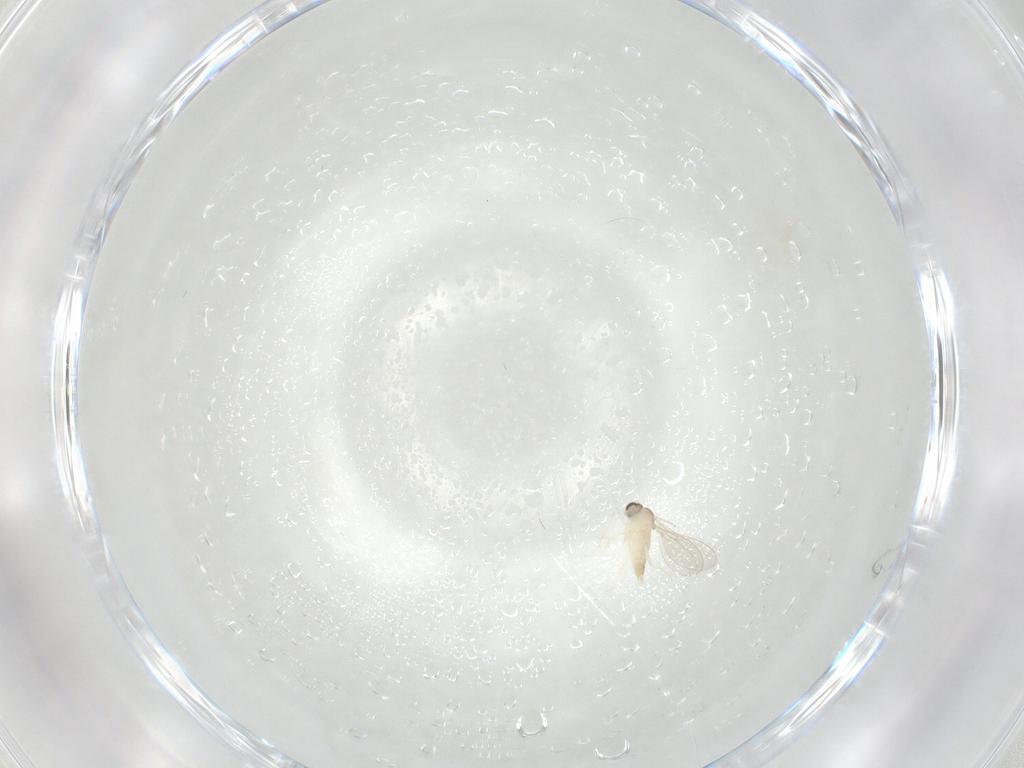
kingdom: Animalia
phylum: Arthropoda
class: Insecta
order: Diptera
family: Cecidomyiidae
